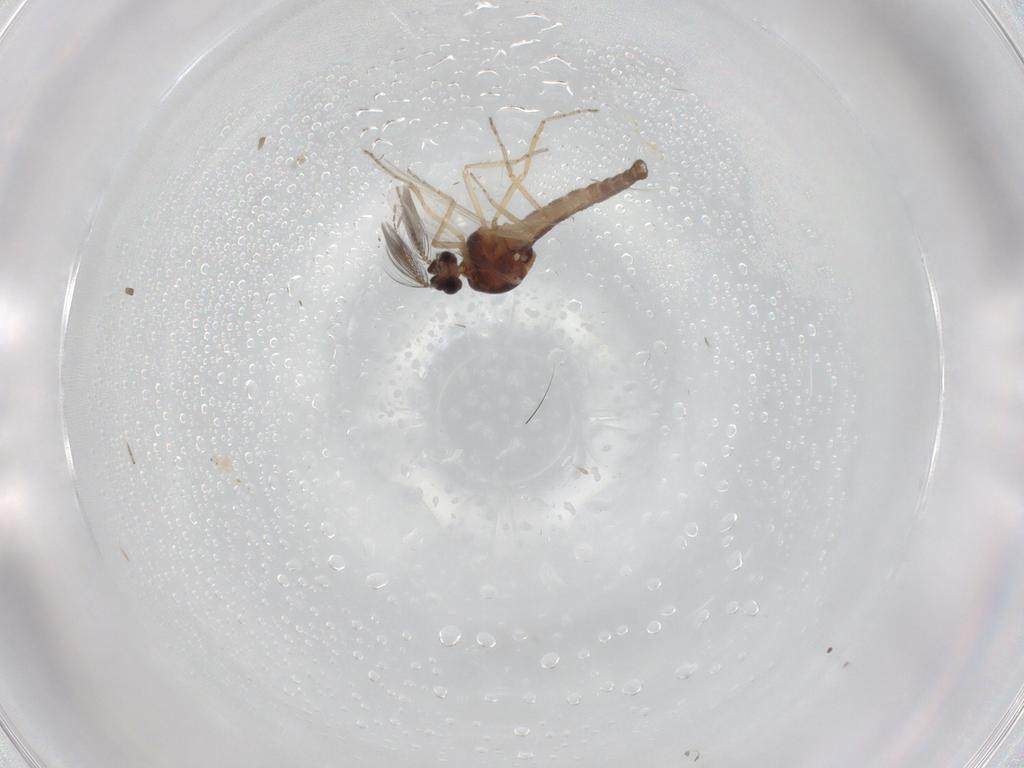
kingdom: Animalia
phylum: Arthropoda
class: Insecta
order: Diptera
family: Ceratopogonidae
